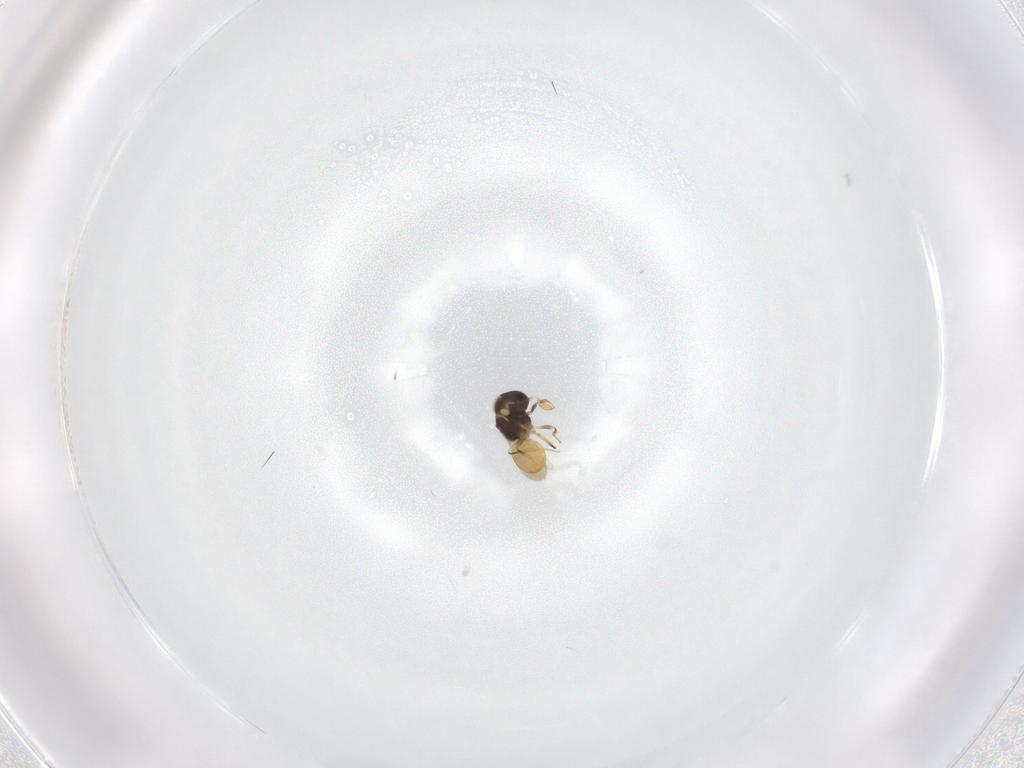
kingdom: Animalia
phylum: Arthropoda
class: Insecta
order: Hymenoptera
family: Scelionidae
